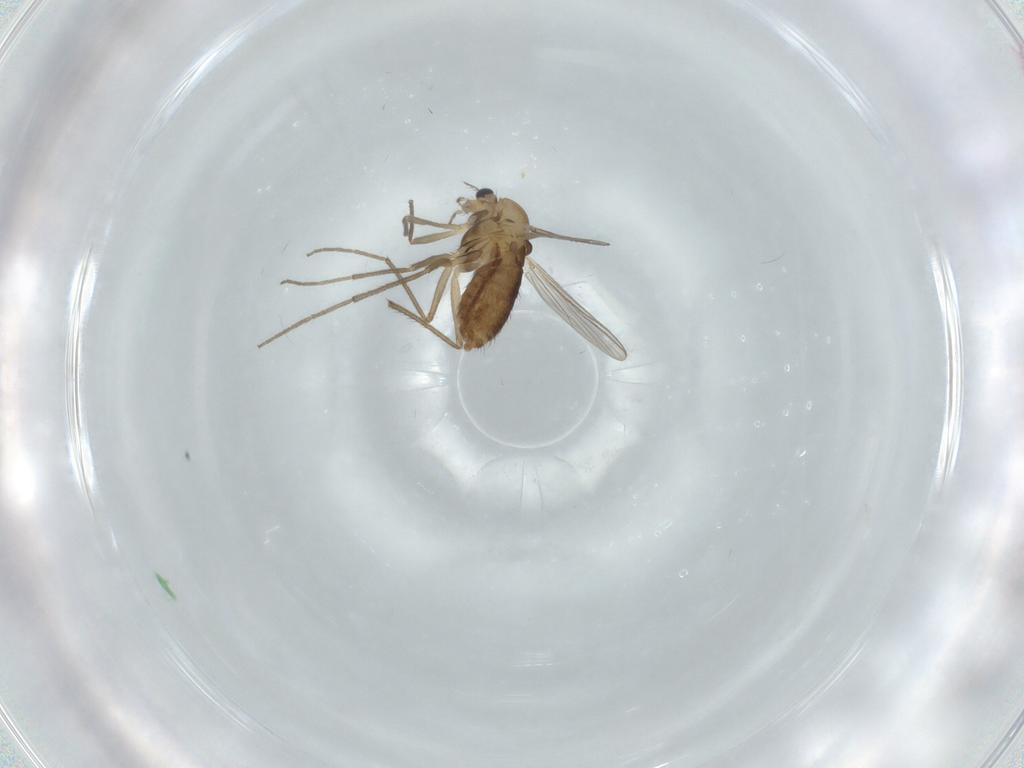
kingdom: Animalia
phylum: Arthropoda
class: Insecta
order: Diptera
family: Chironomidae
